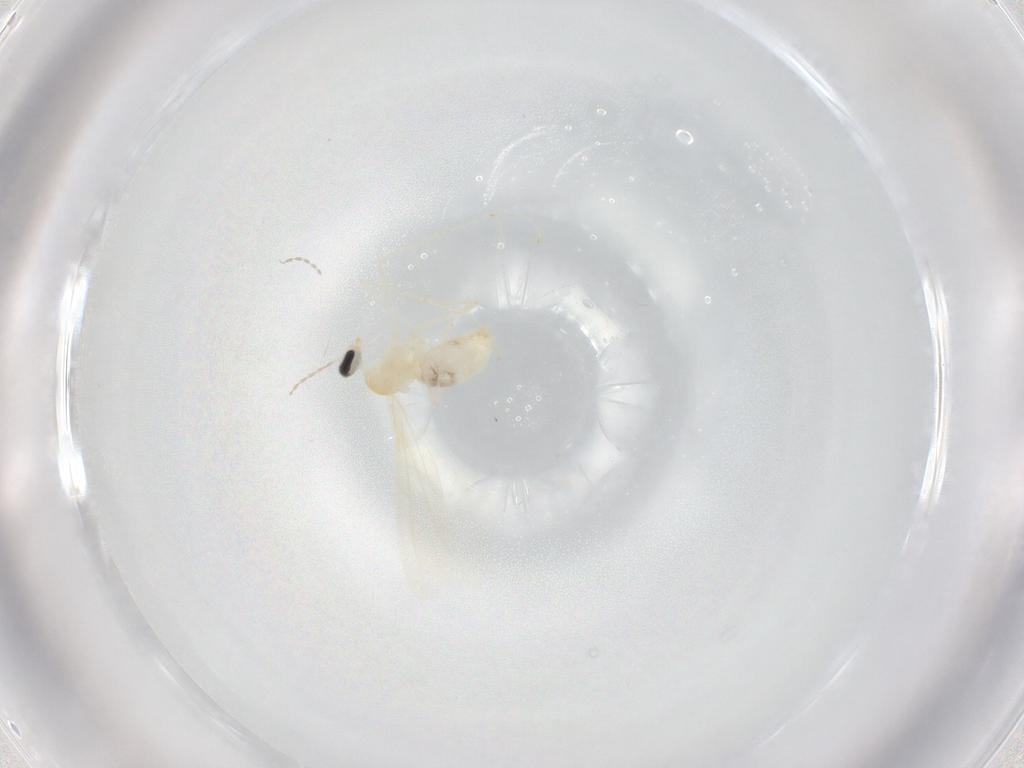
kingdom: Animalia
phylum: Arthropoda
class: Insecta
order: Diptera
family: Cecidomyiidae
